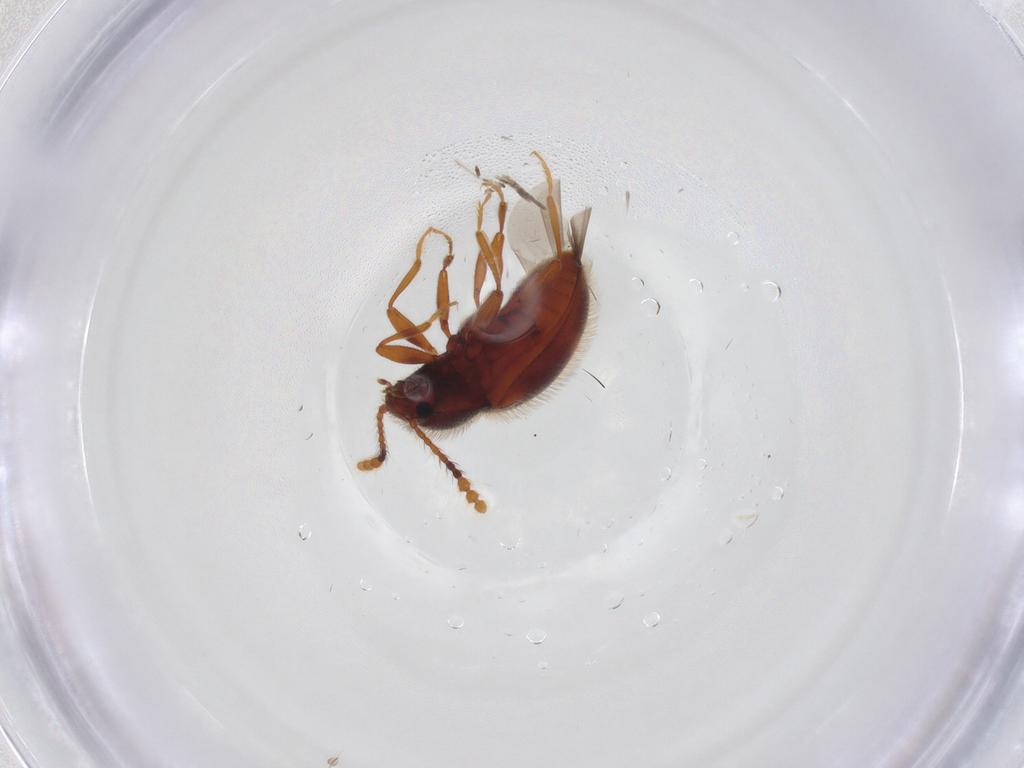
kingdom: Animalia
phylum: Arthropoda
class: Insecta
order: Coleoptera
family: Erotylidae
